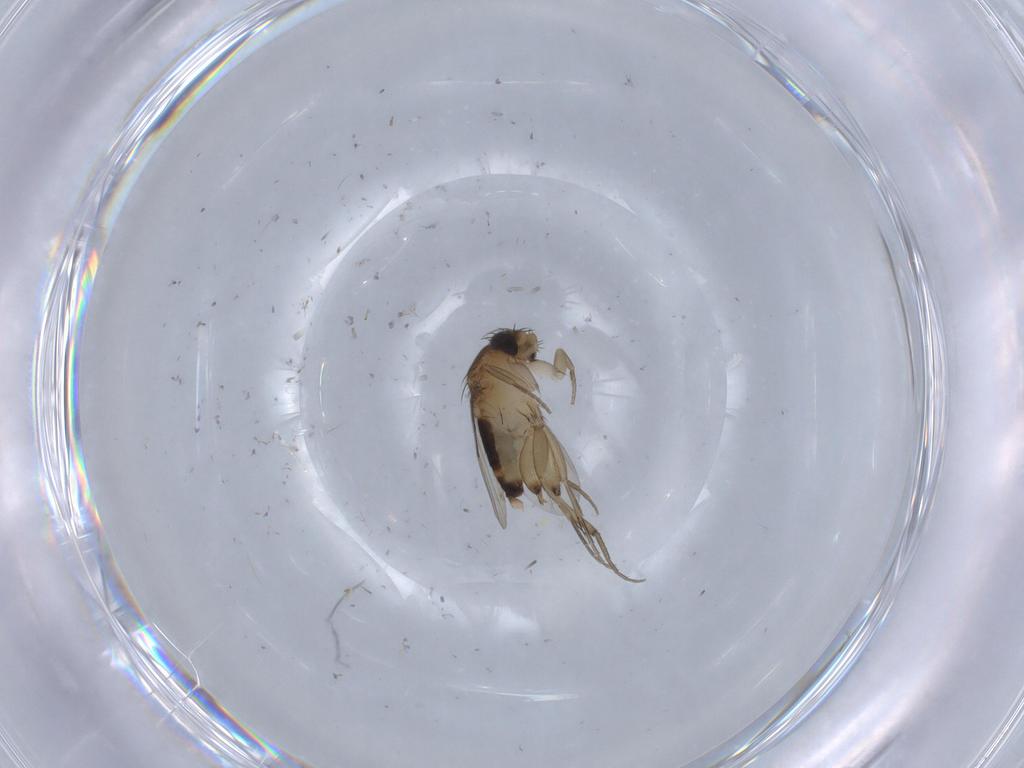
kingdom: Animalia
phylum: Arthropoda
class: Insecta
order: Diptera
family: Phoridae
